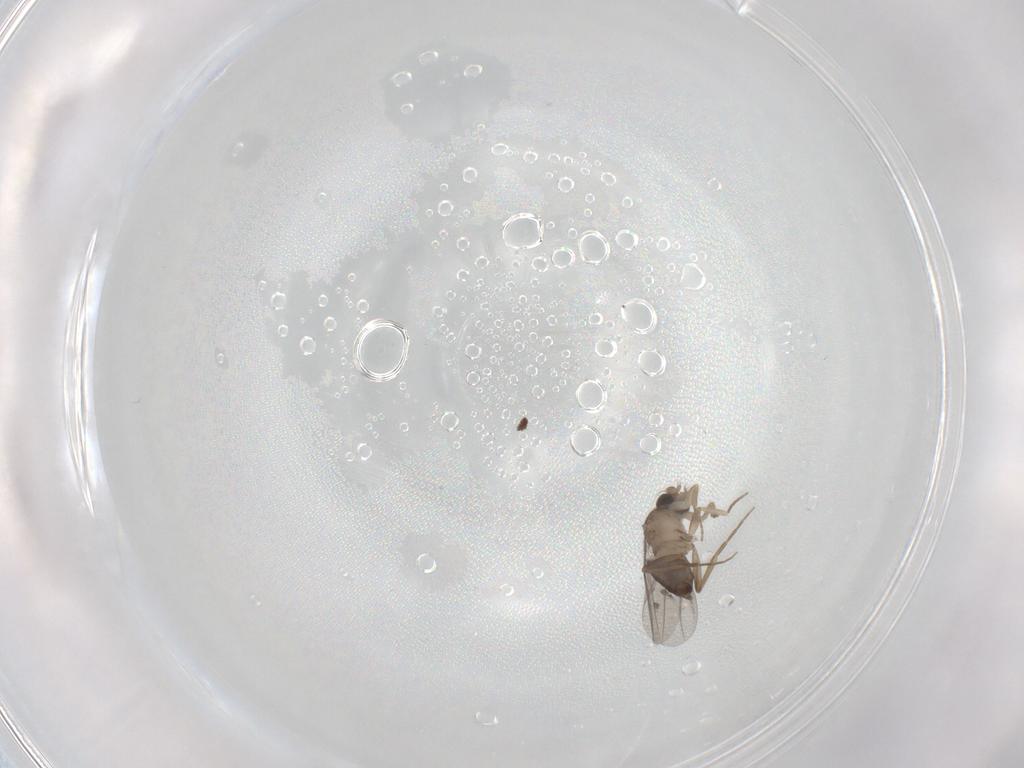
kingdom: Animalia
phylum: Arthropoda
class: Insecta
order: Diptera
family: Phoridae
